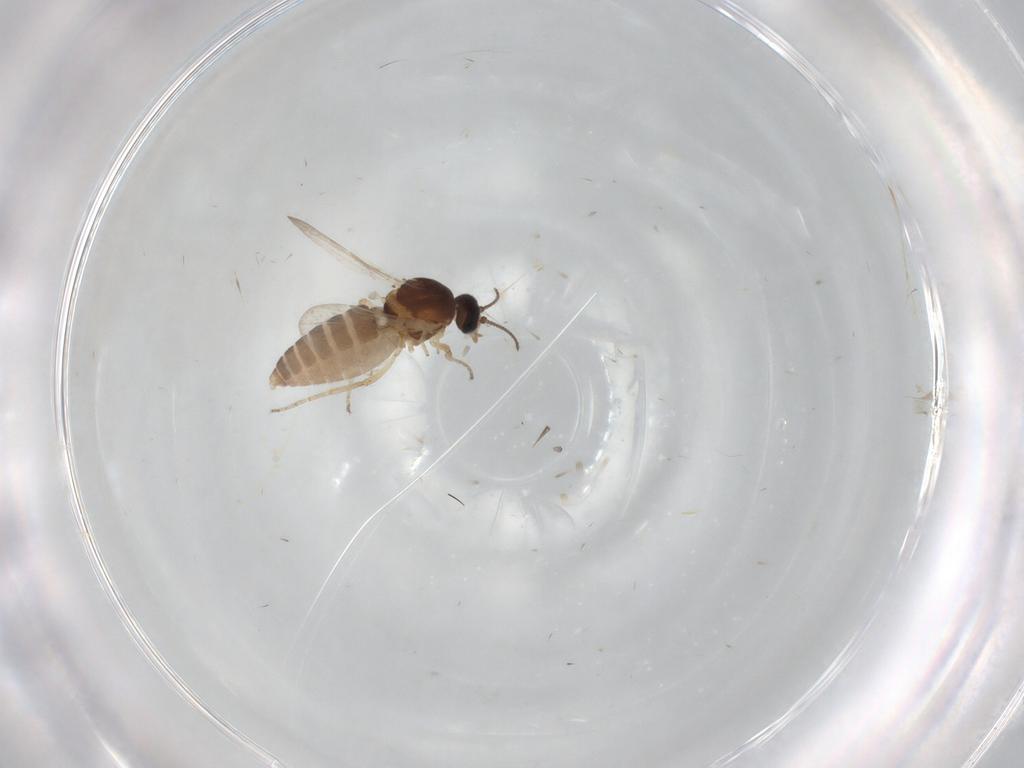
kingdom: Animalia
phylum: Arthropoda
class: Insecta
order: Diptera
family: Ceratopogonidae
